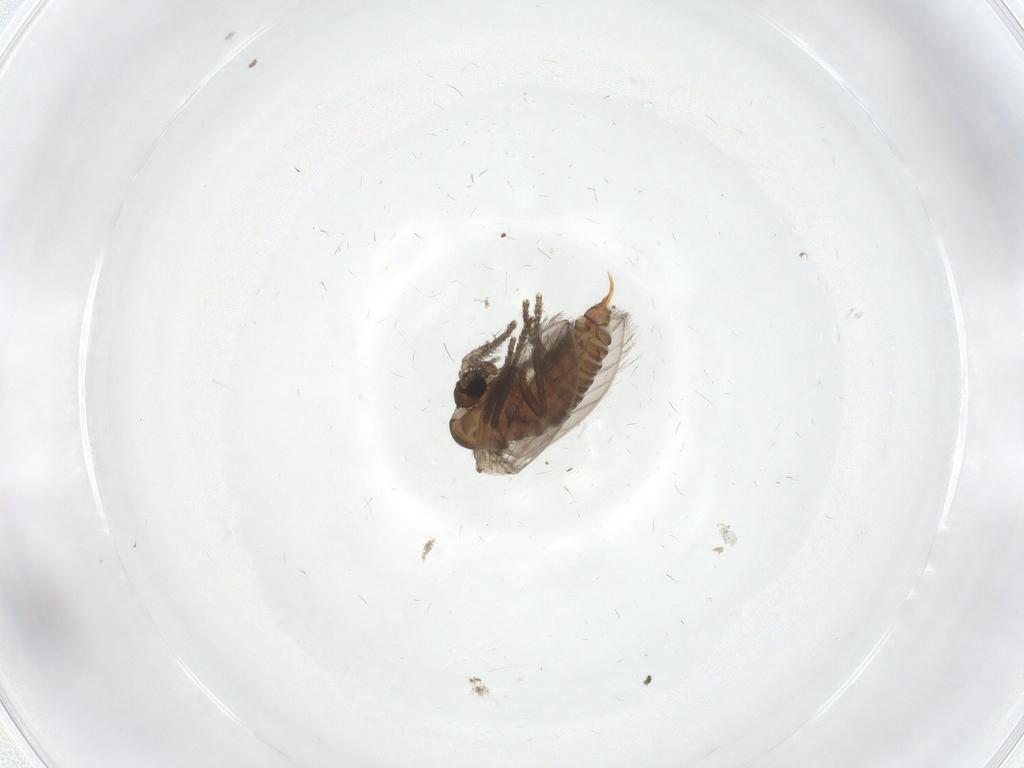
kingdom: Animalia
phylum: Arthropoda
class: Insecta
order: Diptera
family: Psychodidae
